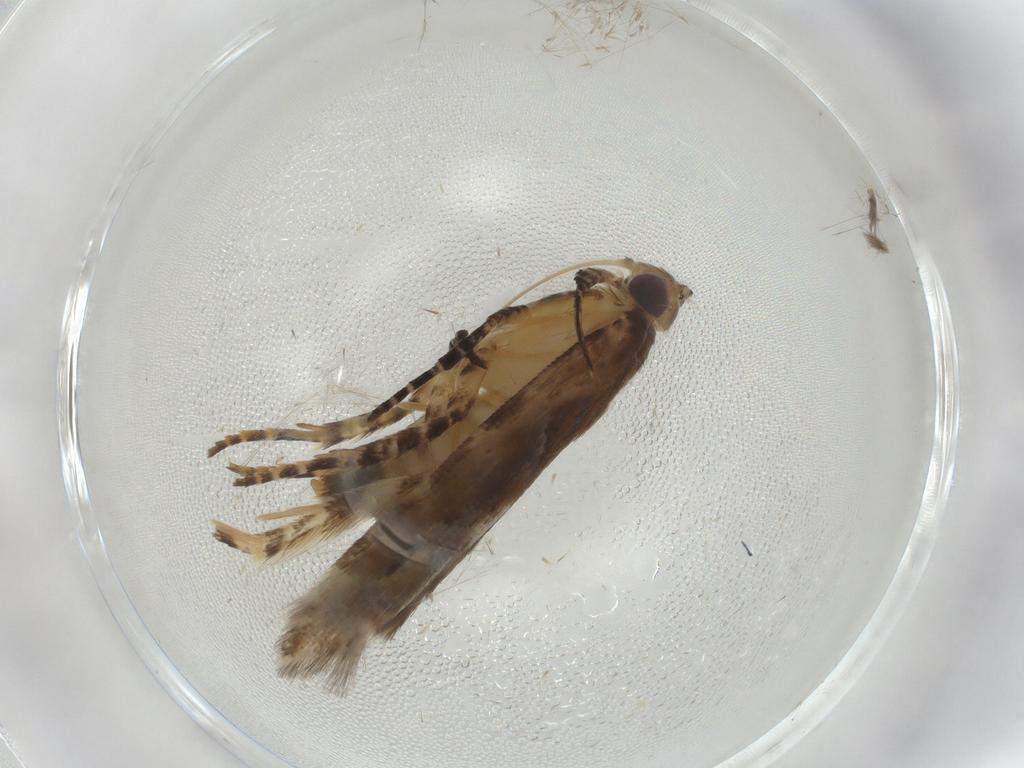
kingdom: Animalia
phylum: Arthropoda
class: Insecta
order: Lepidoptera
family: Gelechiidae
